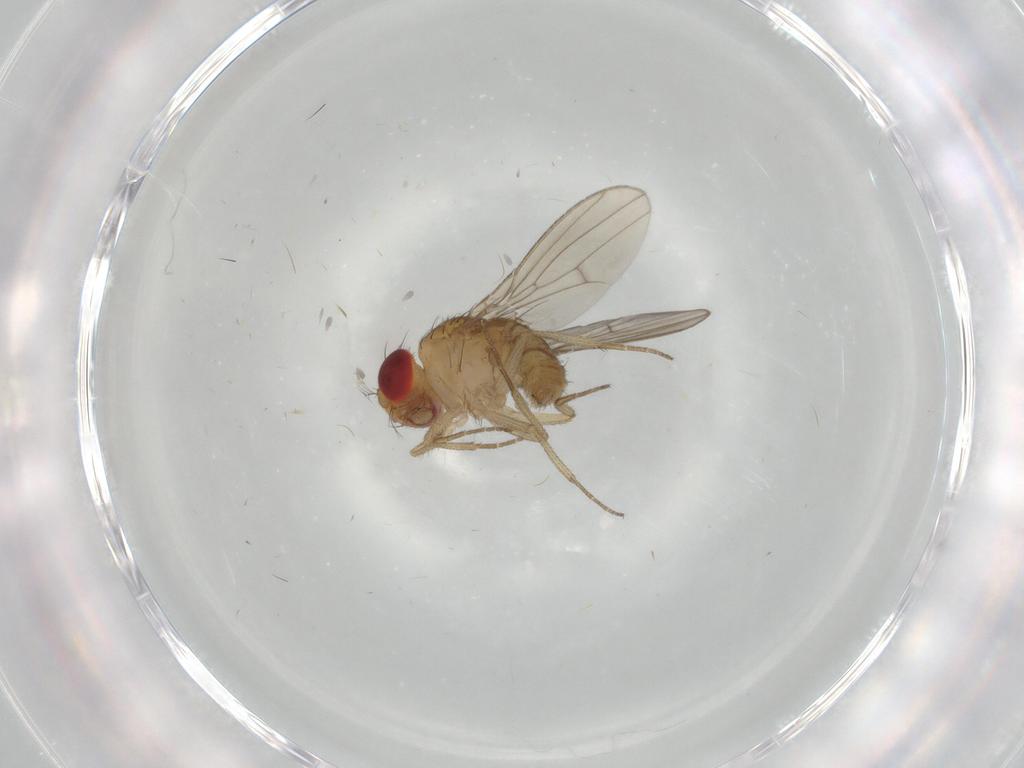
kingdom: Animalia
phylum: Arthropoda
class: Insecta
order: Diptera
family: Drosophilidae
